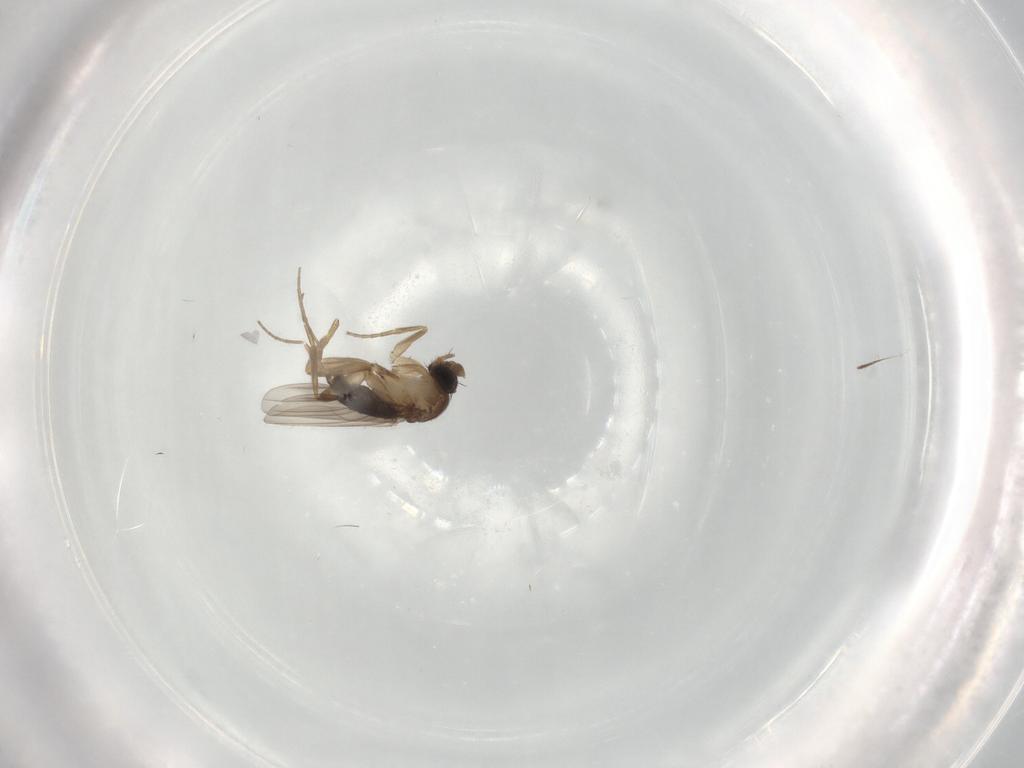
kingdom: Animalia
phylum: Arthropoda
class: Insecta
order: Diptera
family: Phoridae
